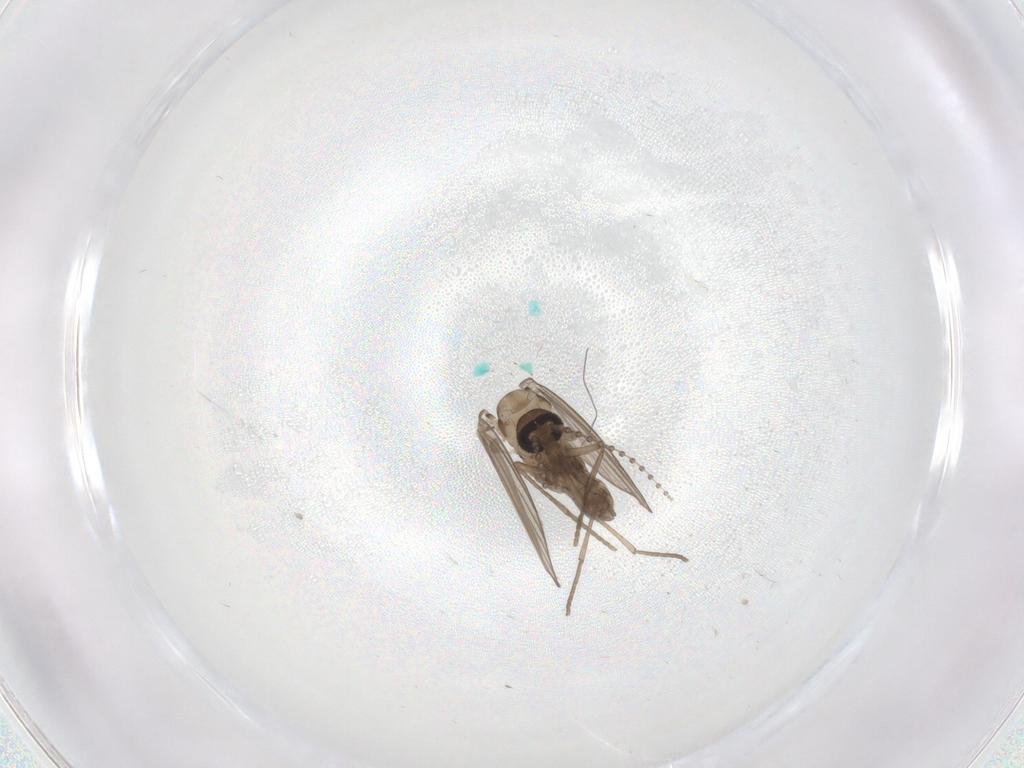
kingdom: Animalia
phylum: Arthropoda
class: Insecta
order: Diptera
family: Psychodidae
